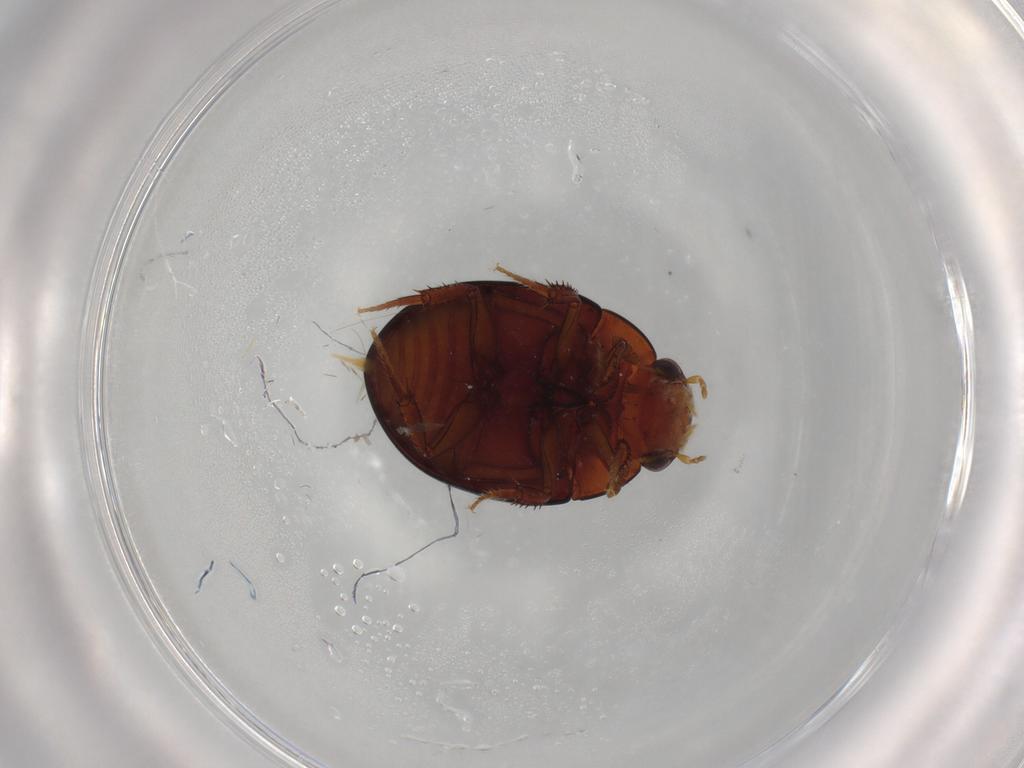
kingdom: Animalia
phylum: Arthropoda
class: Insecta
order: Coleoptera
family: Hydrophilidae
